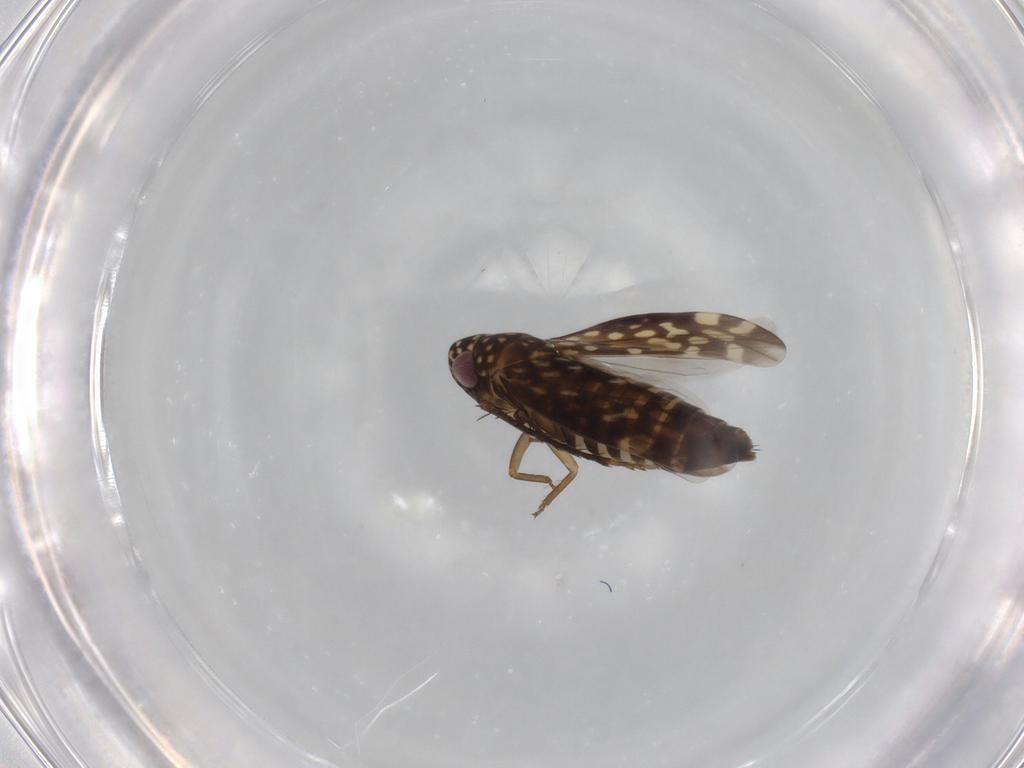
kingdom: Animalia
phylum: Arthropoda
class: Insecta
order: Hemiptera
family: Cicadellidae
